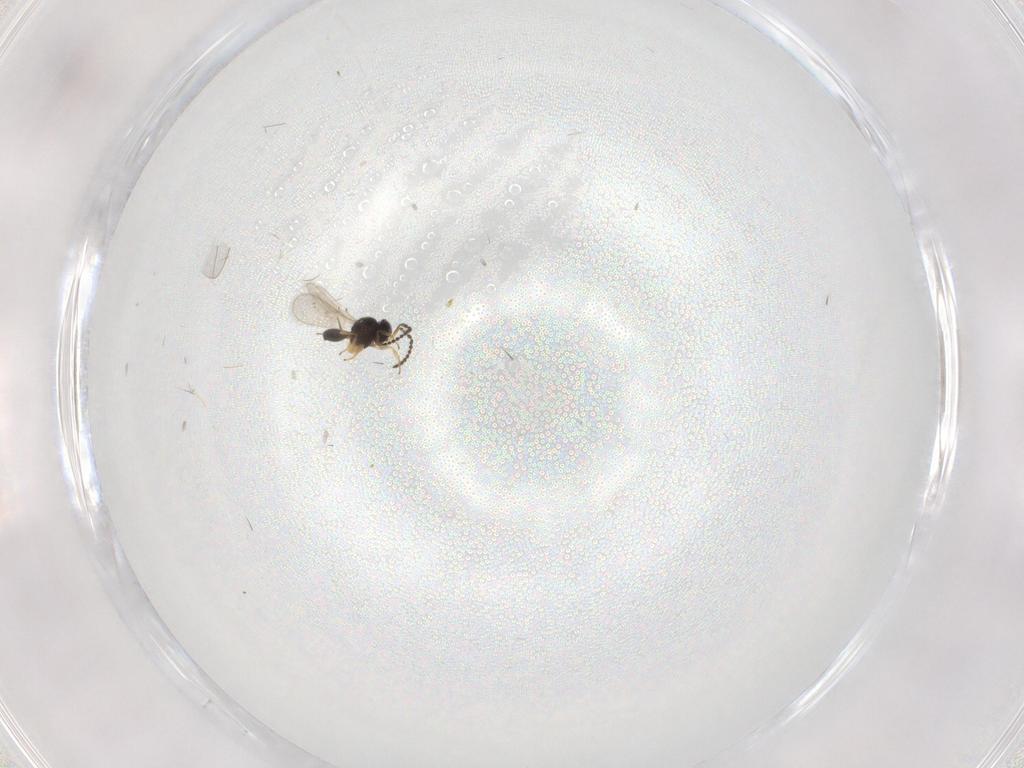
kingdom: Animalia
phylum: Arthropoda
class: Insecta
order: Hymenoptera
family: Scelionidae
